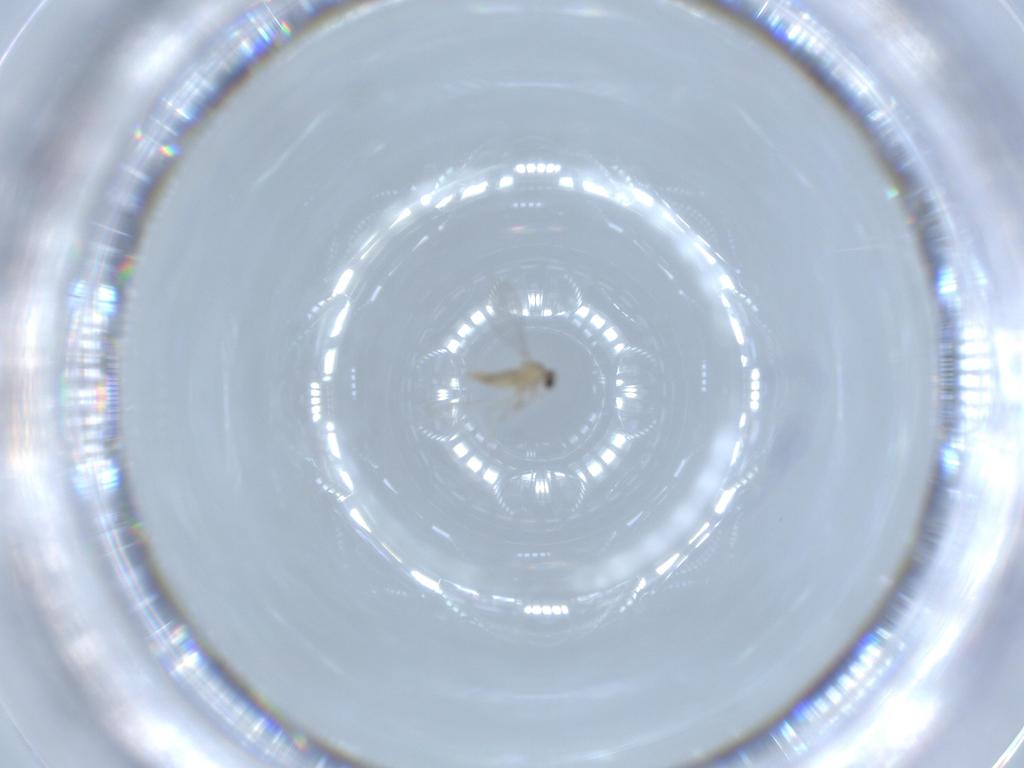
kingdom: Animalia
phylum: Arthropoda
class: Insecta
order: Diptera
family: Cecidomyiidae
